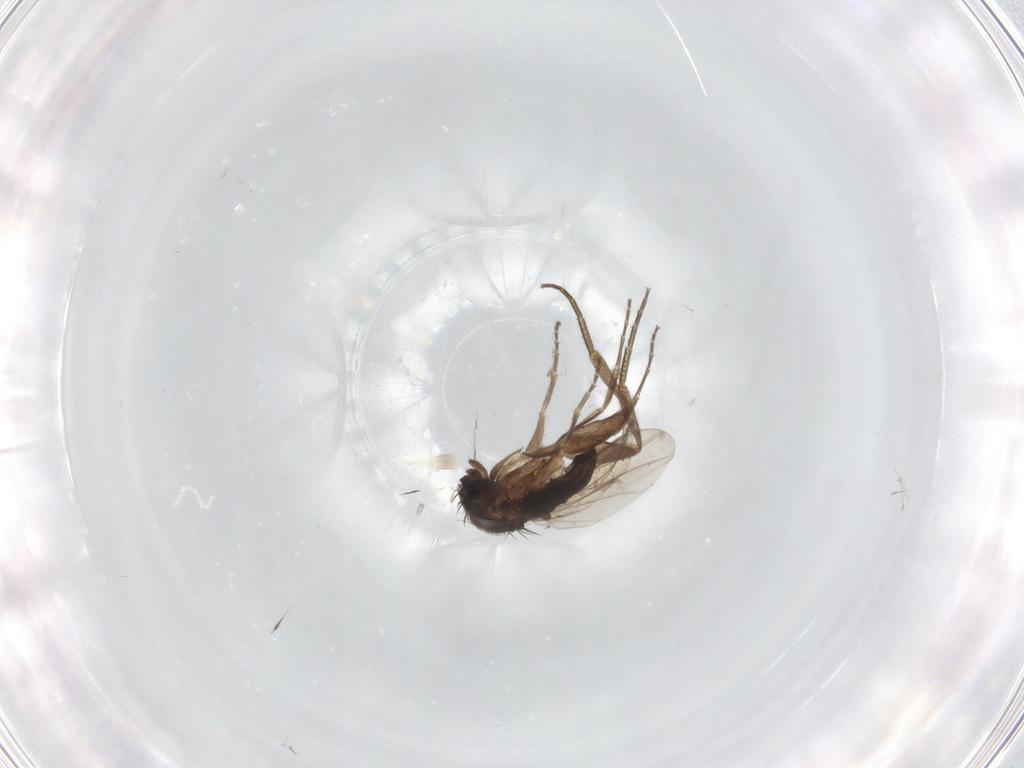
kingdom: Animalia
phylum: Arthropoda
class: Insecta
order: Diptera
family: Phoridae
